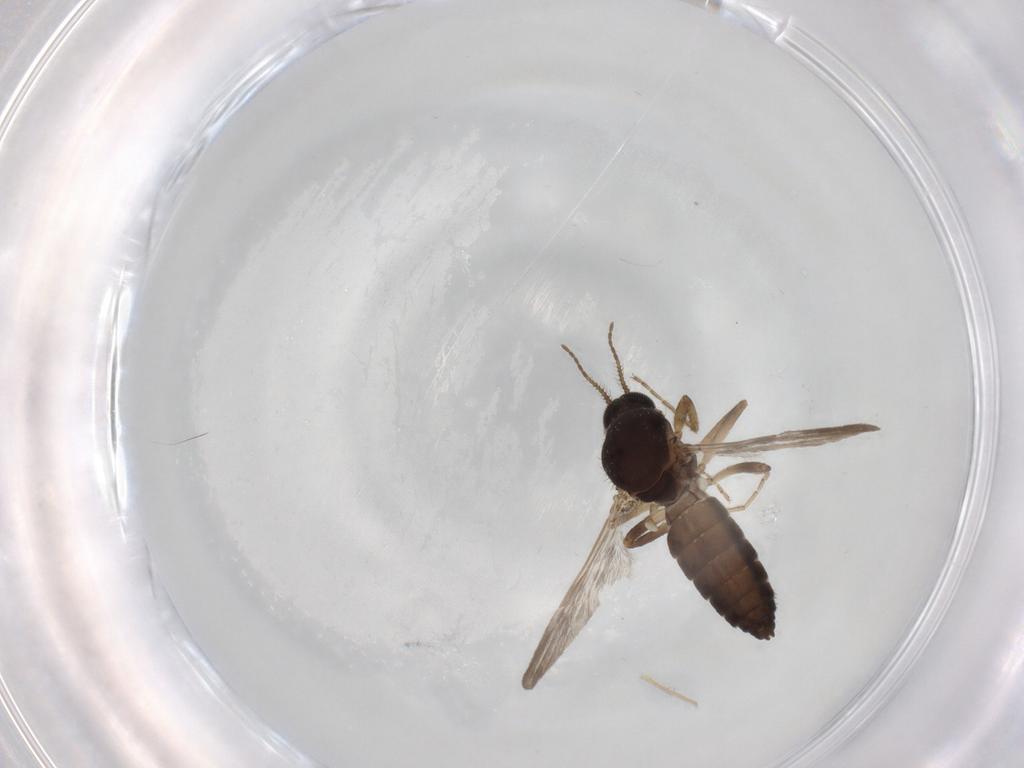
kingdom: Animalia
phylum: Arthropoda
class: Insecta
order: Diptera
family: Ceratopogonidae
